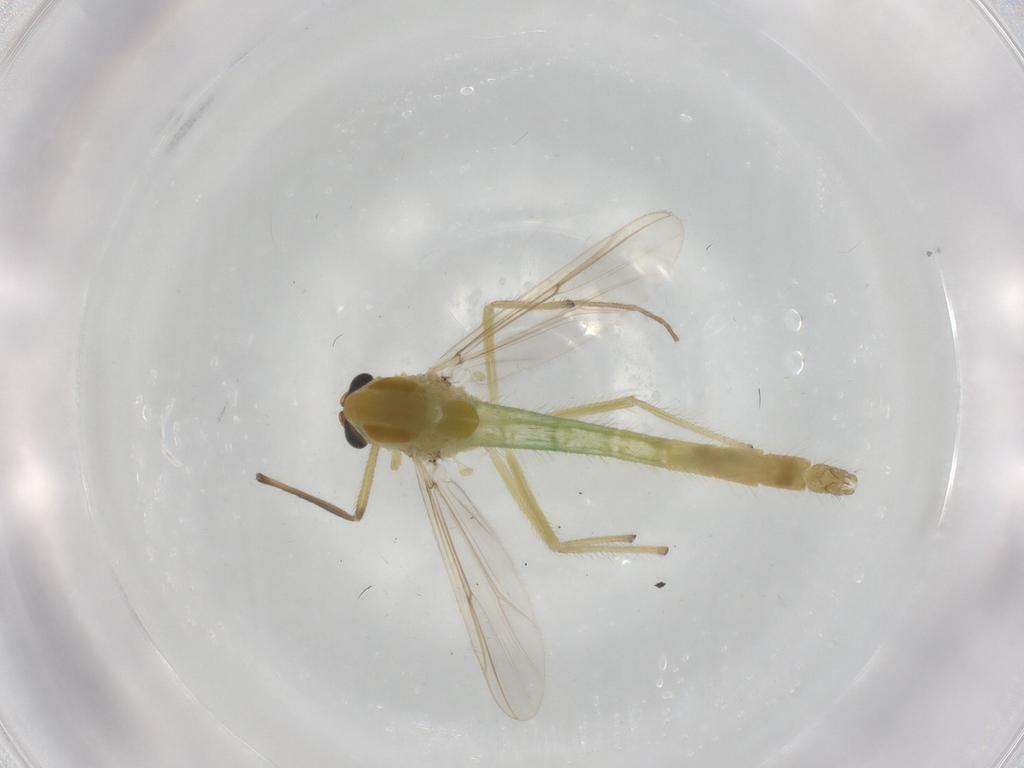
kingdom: Animalia
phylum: Arthropoda
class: Insecta
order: Diptera
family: Chironomidae
